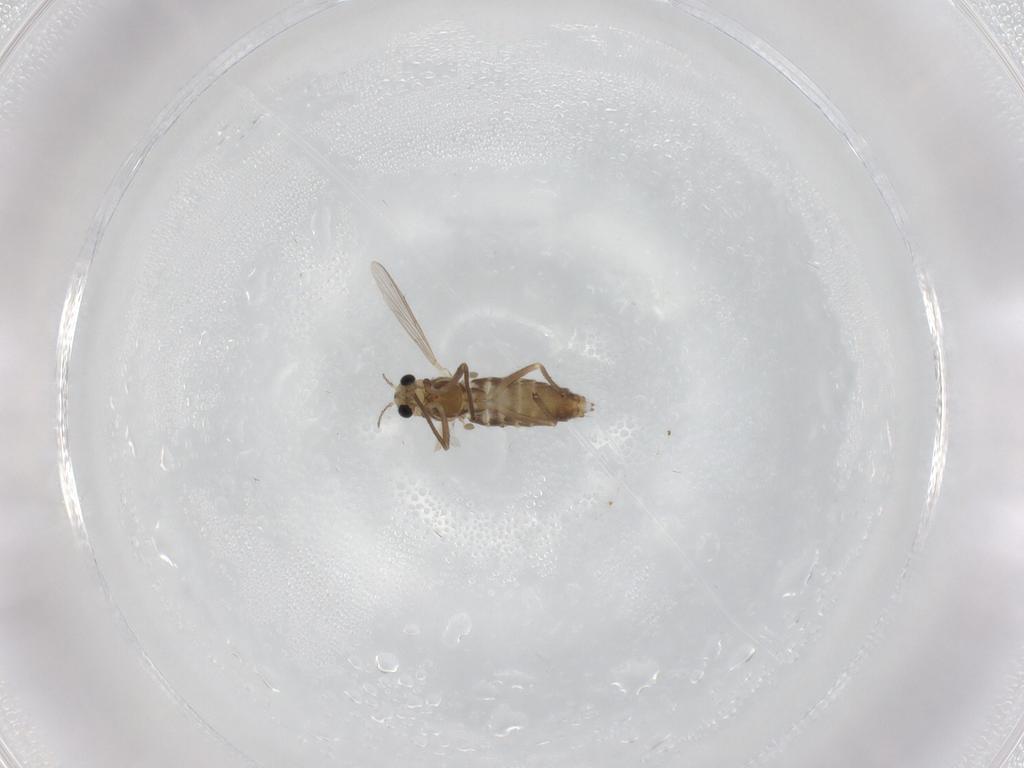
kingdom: Animalia
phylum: Arthropoda
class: Insecta
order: Diptera
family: Chironomidae
